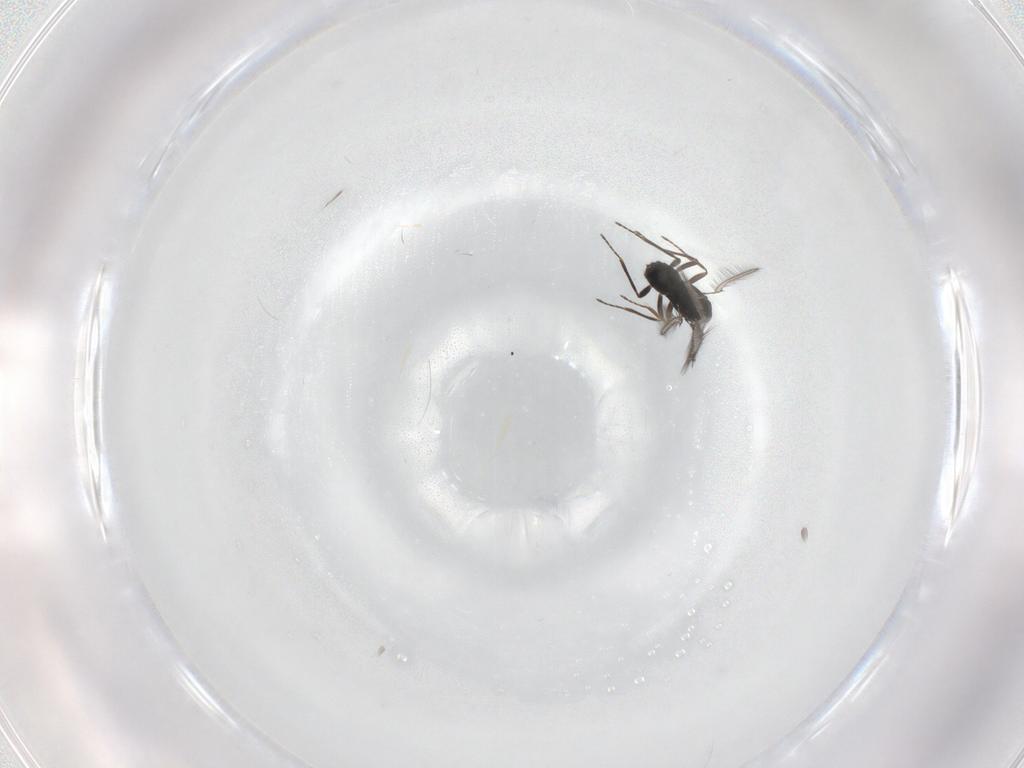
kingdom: Animalia
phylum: Arthropoda
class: Insecta
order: Diptera
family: Chironomidae
